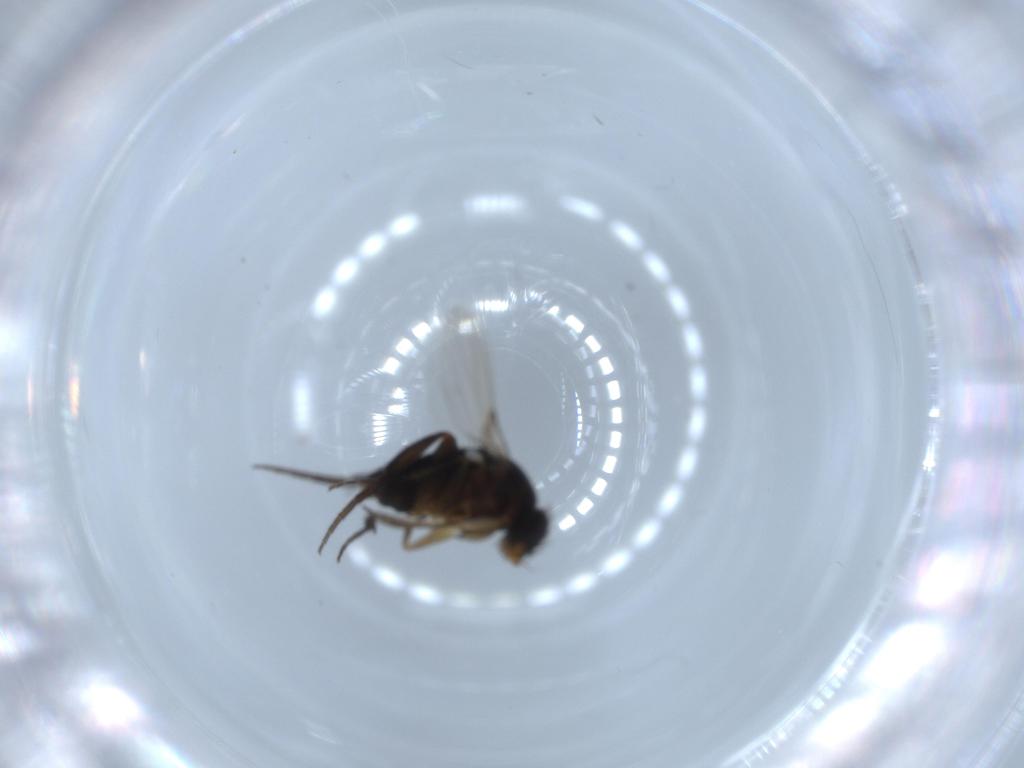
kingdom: Animalia
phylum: Arthropoda
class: Insecta
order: Diptera
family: Phoridae
